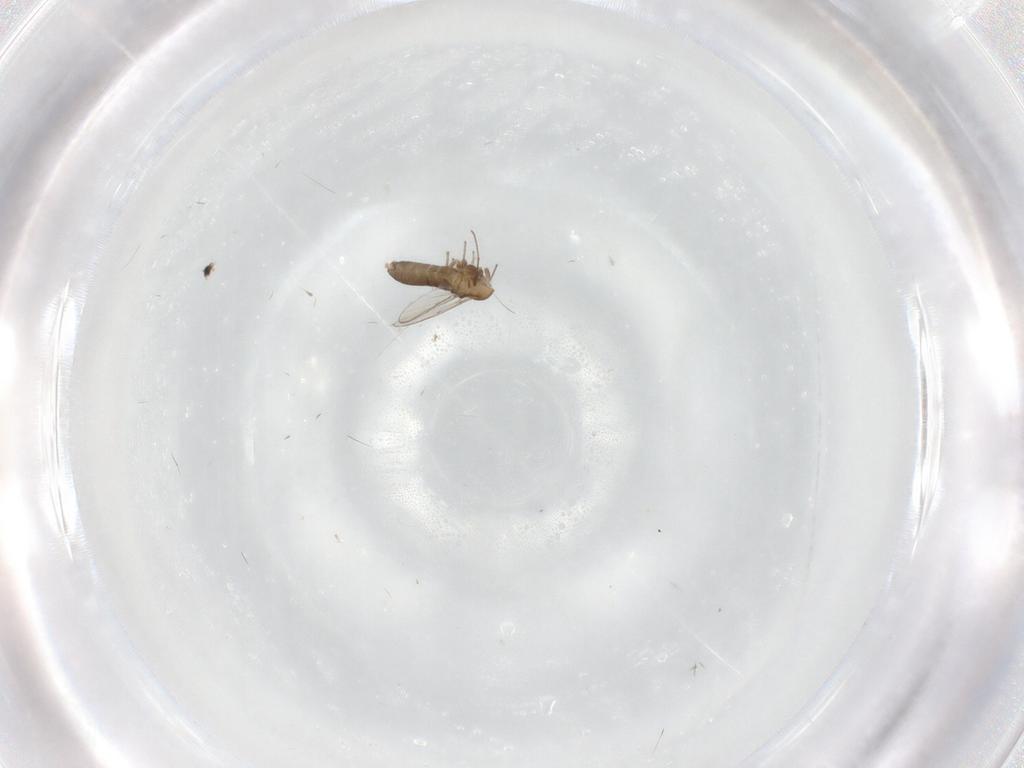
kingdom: Animalia
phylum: Arthropoda
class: Insecta
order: Diptera
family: Chironomidae
